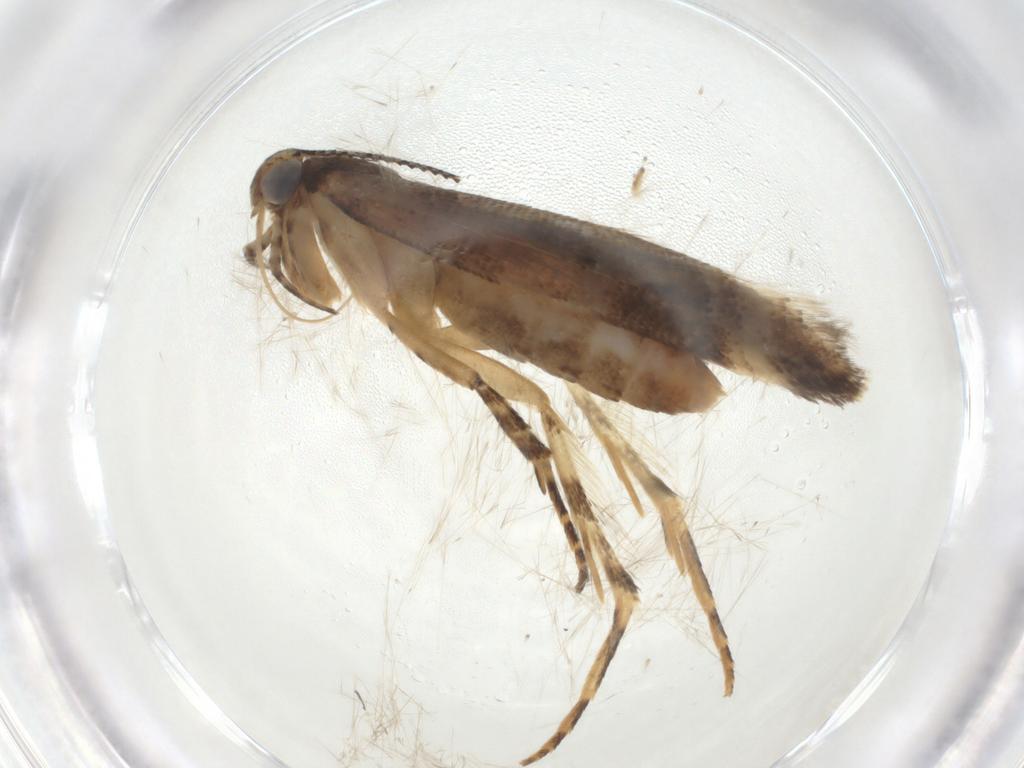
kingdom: Animalia
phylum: Arthropoda
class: Insecta
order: Lepidoptera
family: Gelechiidae
